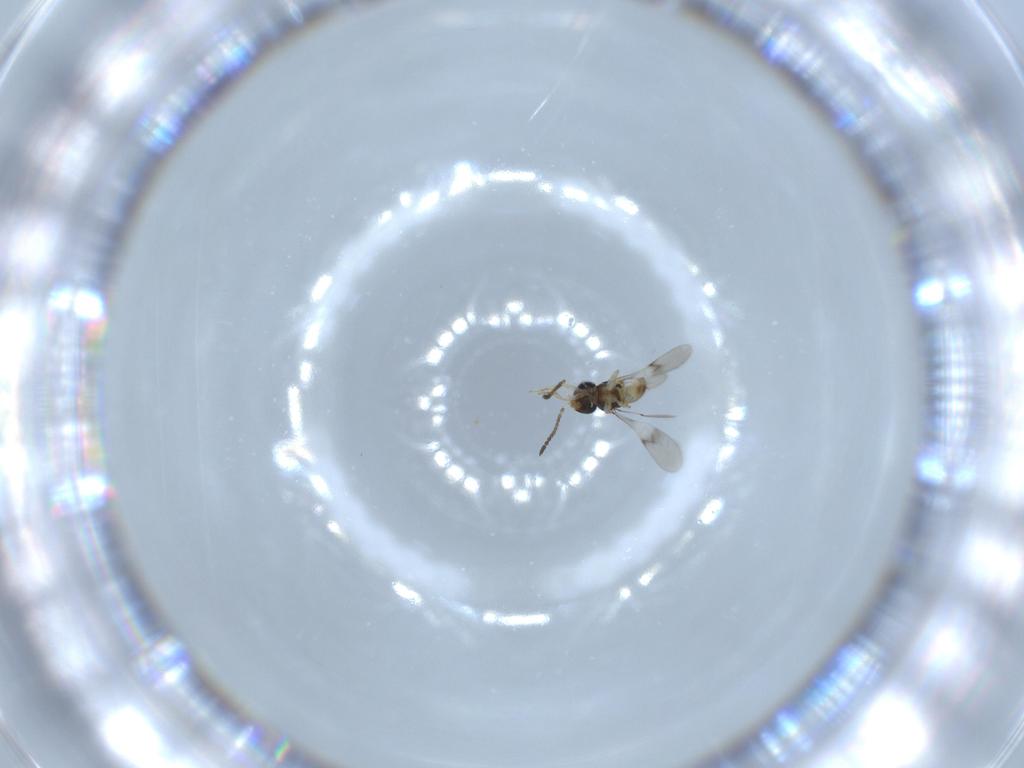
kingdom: Animalia
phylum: Arthropoda
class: Insecta
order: Hymenoptera
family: Scelionidae
